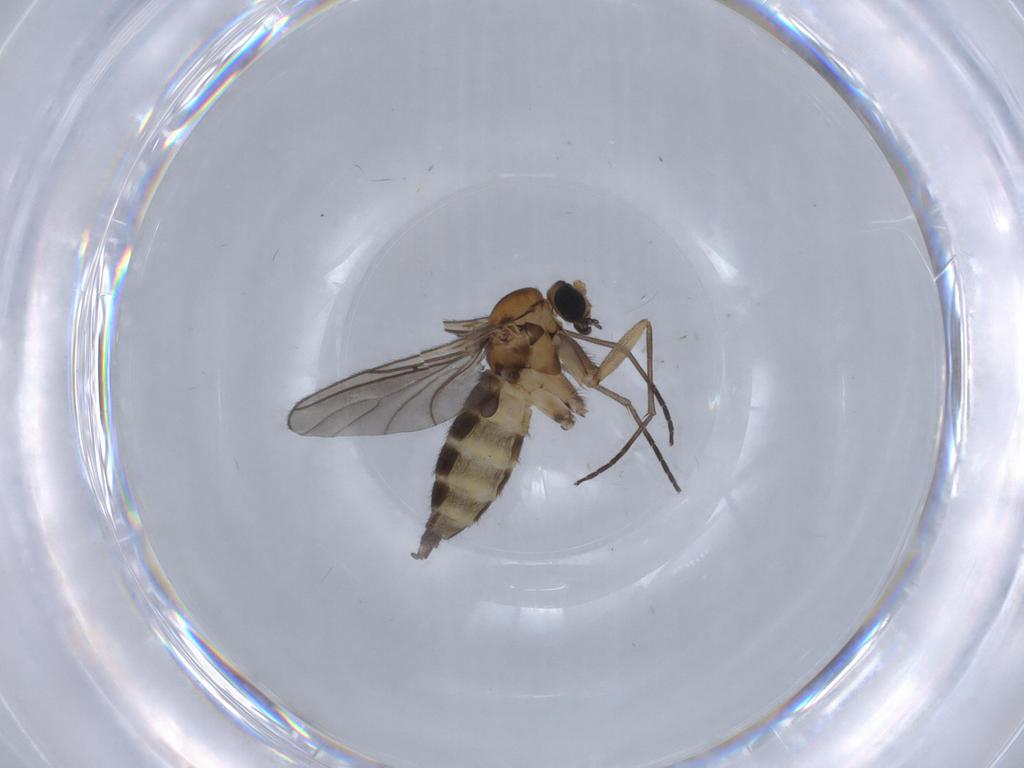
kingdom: Animalia
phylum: Arthropoda
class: Insecta
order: Diptera
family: Sciaridae
